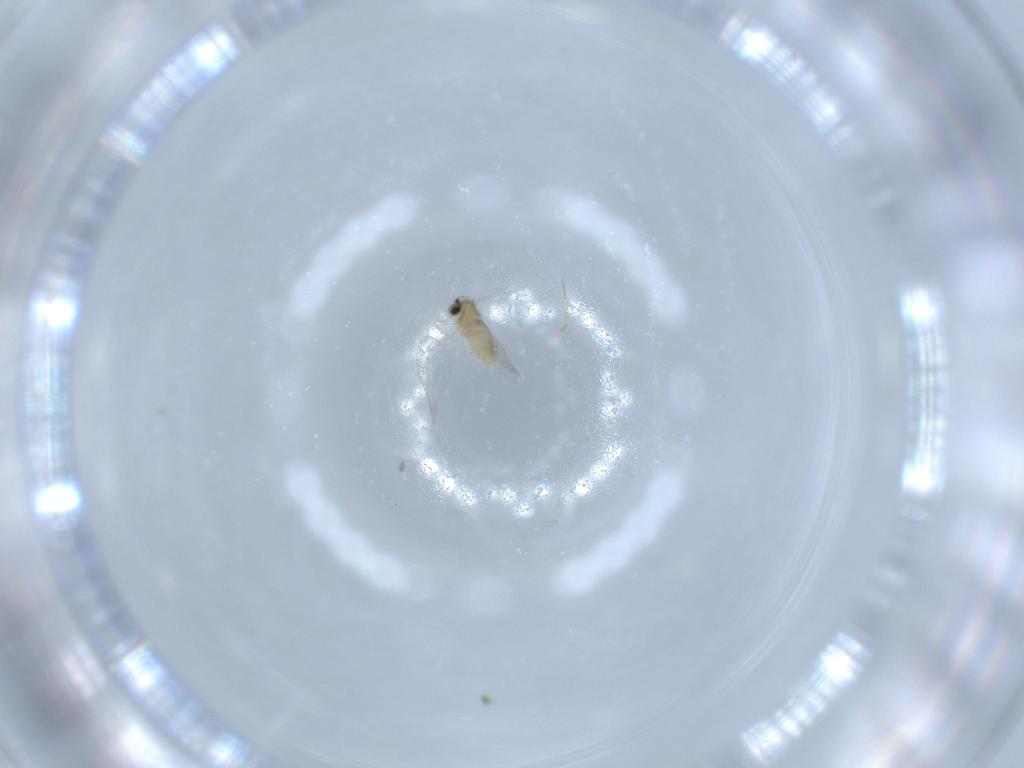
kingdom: Animalia
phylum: Arthropoda
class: Insecta
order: Diptera
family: Cecidomyiidae
